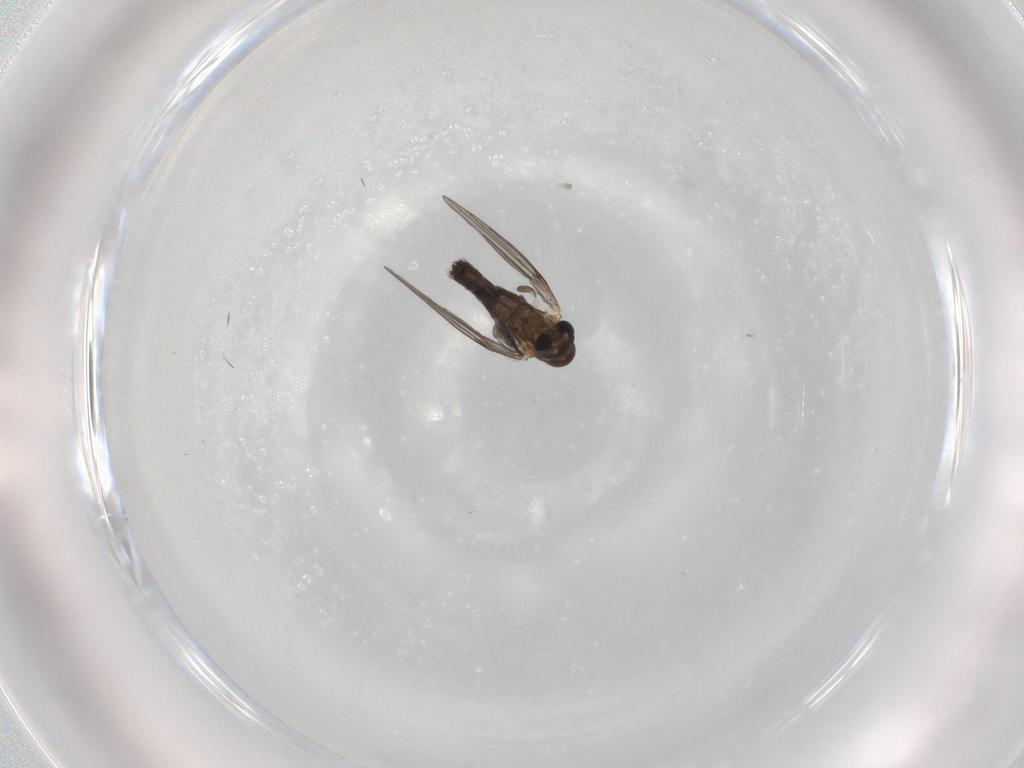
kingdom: Animalia
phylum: Arthropoda
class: Insecta
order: Diptera
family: Ceratopogonidae
